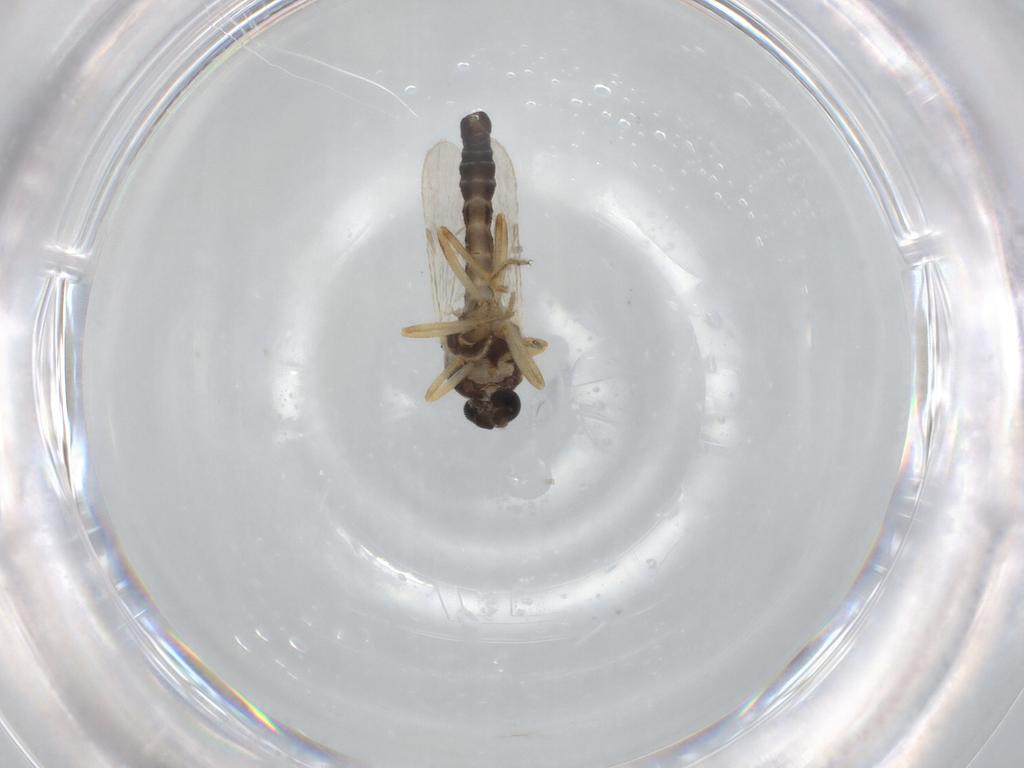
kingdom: Animalia
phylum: Arthropoda
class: Insecta
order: Diptera
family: Ceratopogonidae
